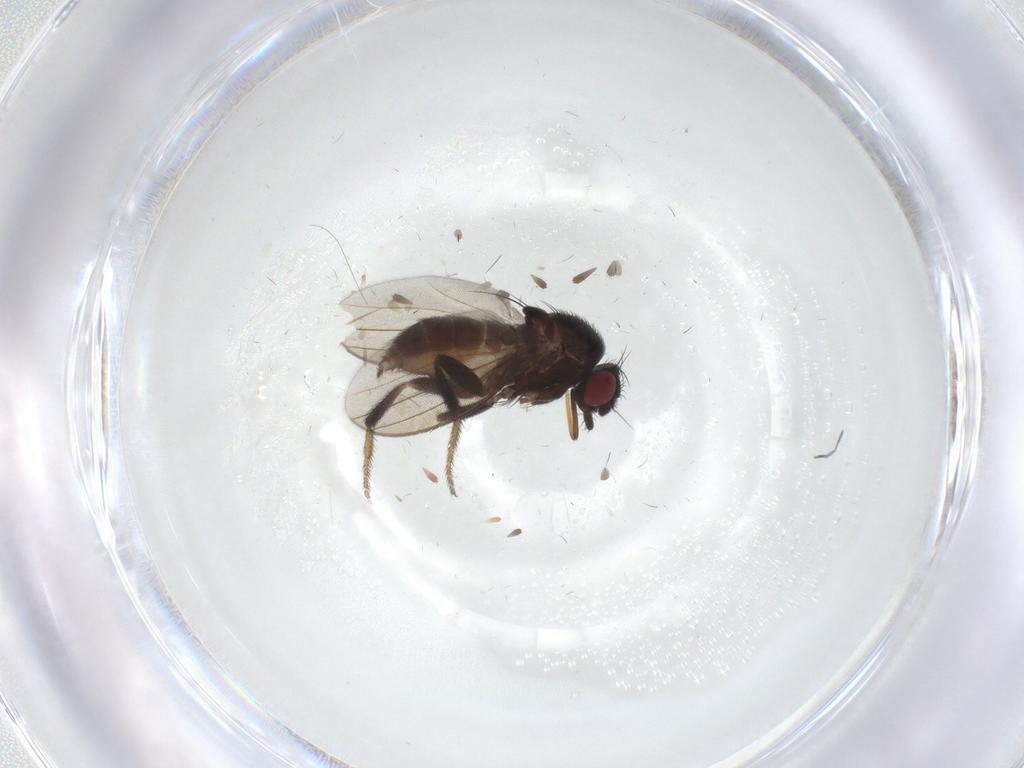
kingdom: Animalia
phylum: Arthropoda
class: Insecta
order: Diptera
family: Milichiidae
